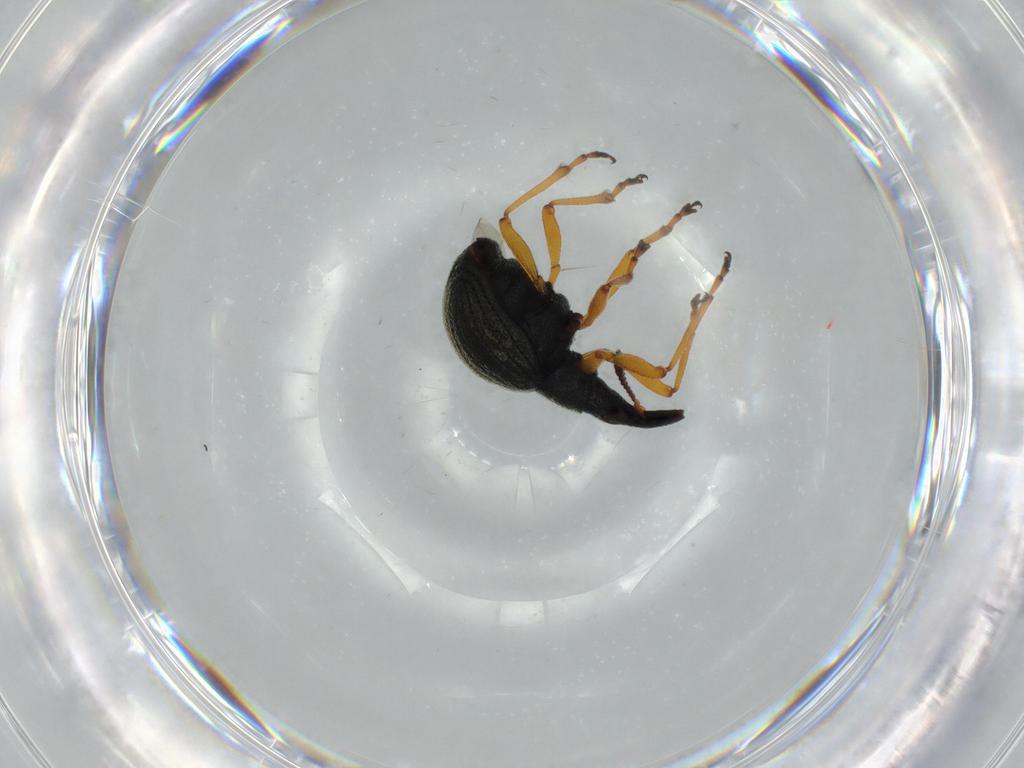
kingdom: Animalia
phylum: Arthropoda
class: Insecta
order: Coleoptera
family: Brentidae
